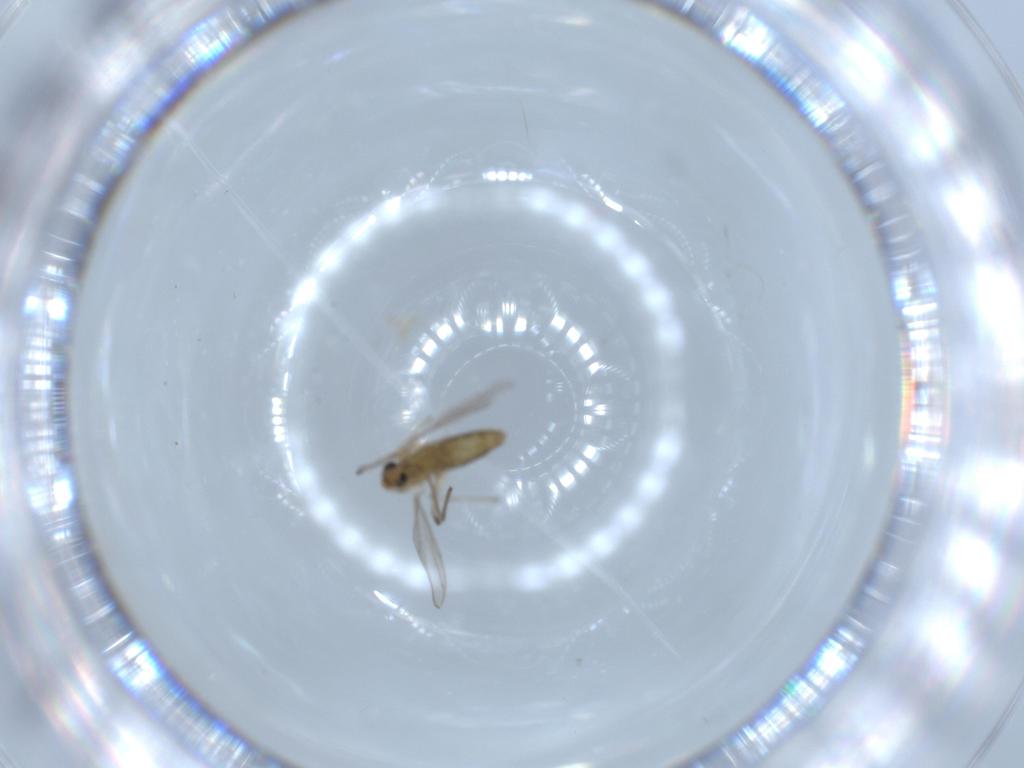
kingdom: Animalia
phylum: Arthropoda
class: Insecta
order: Diptera
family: Chironomidae
